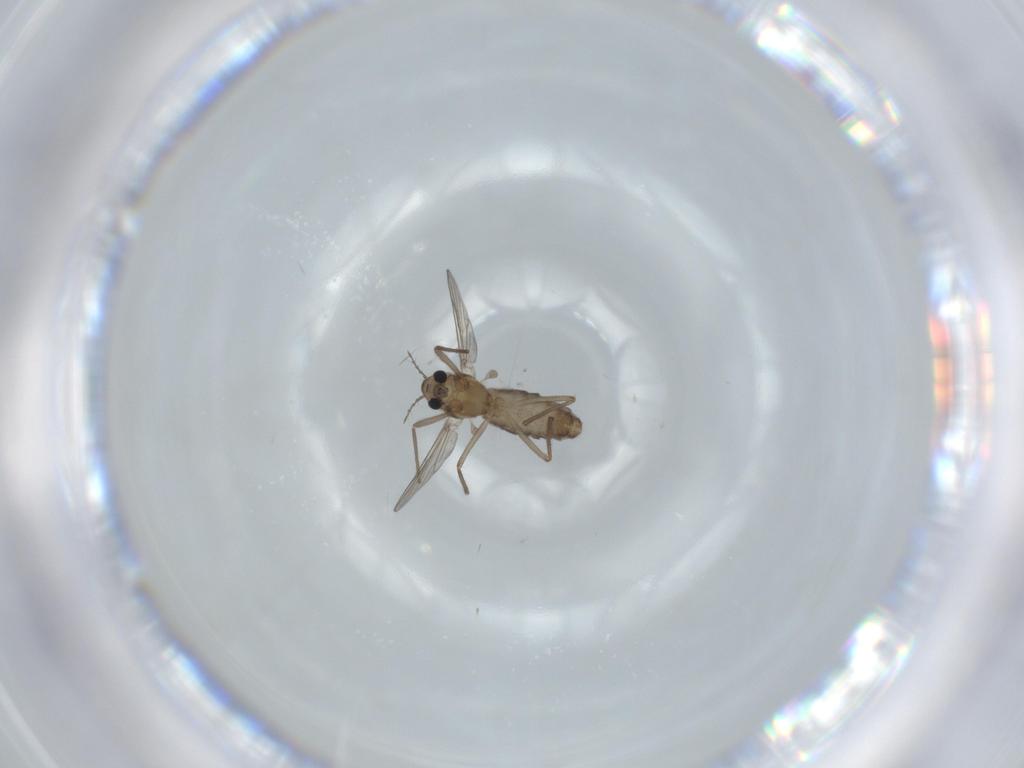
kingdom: Animalia
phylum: Arthropoda
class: Insecta
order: Diptera
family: Chironomidae
